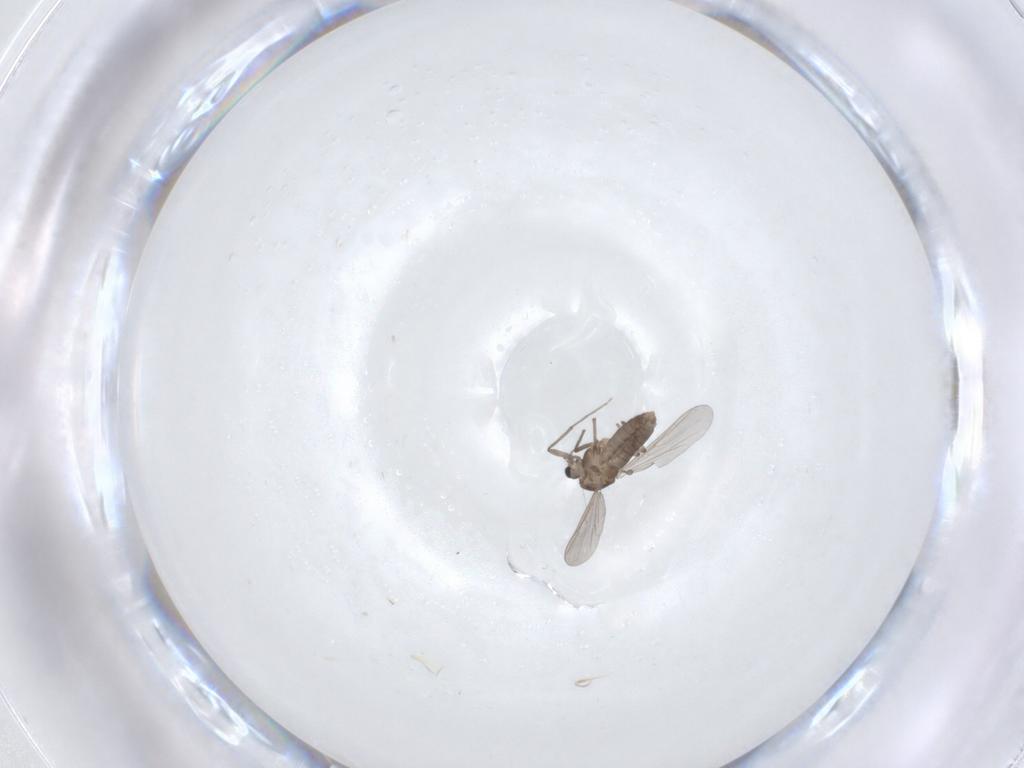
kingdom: Animalia
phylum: Arthropoda
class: Insecta
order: Diptera
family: Chironomidae
